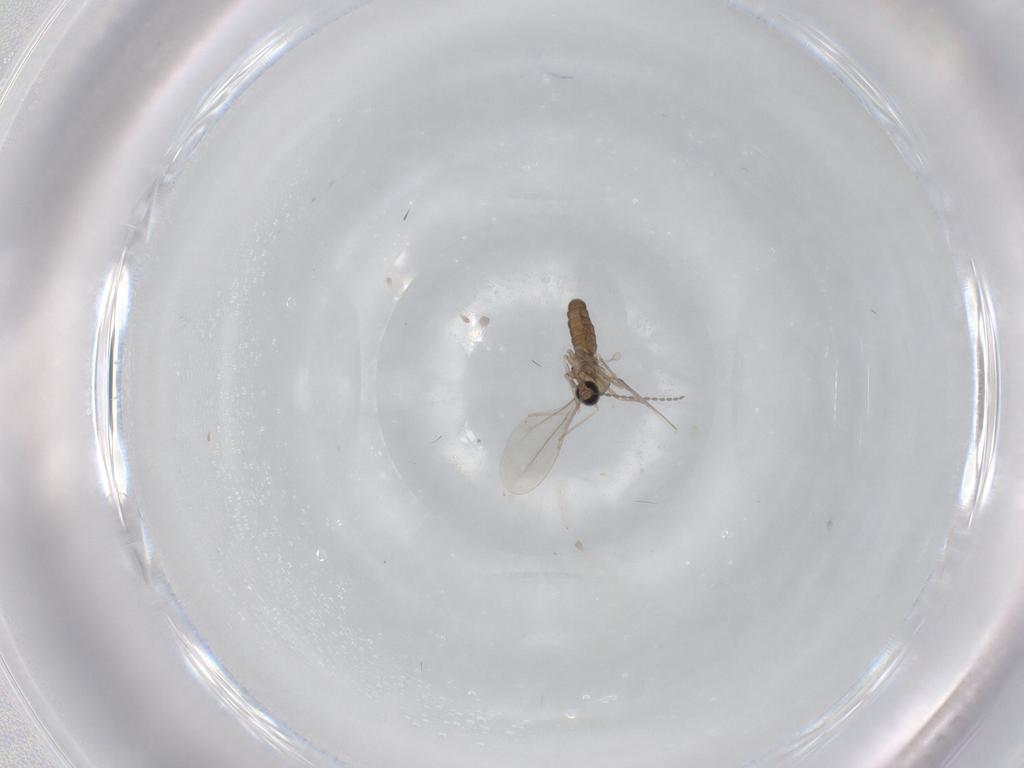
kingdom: Animalia
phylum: Arthropoda
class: Insecta
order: Diptera
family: Cecidomyiidae
